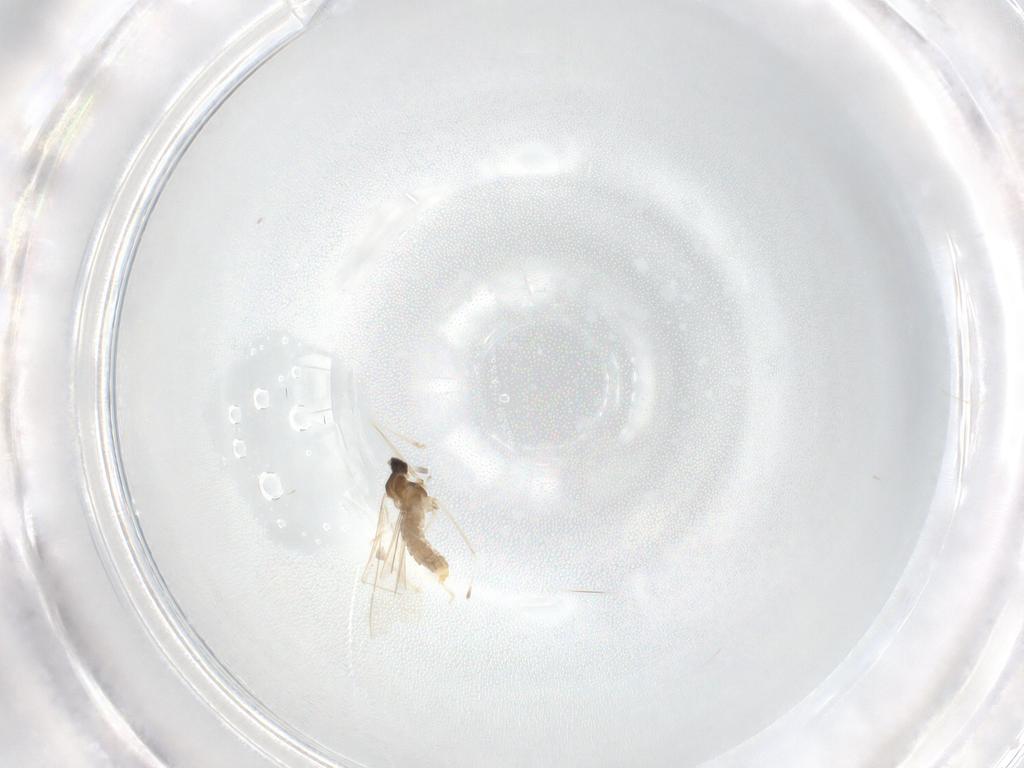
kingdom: Animalia
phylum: Arthropoda
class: Insecta
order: Diptera
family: Cecidomyiidae
